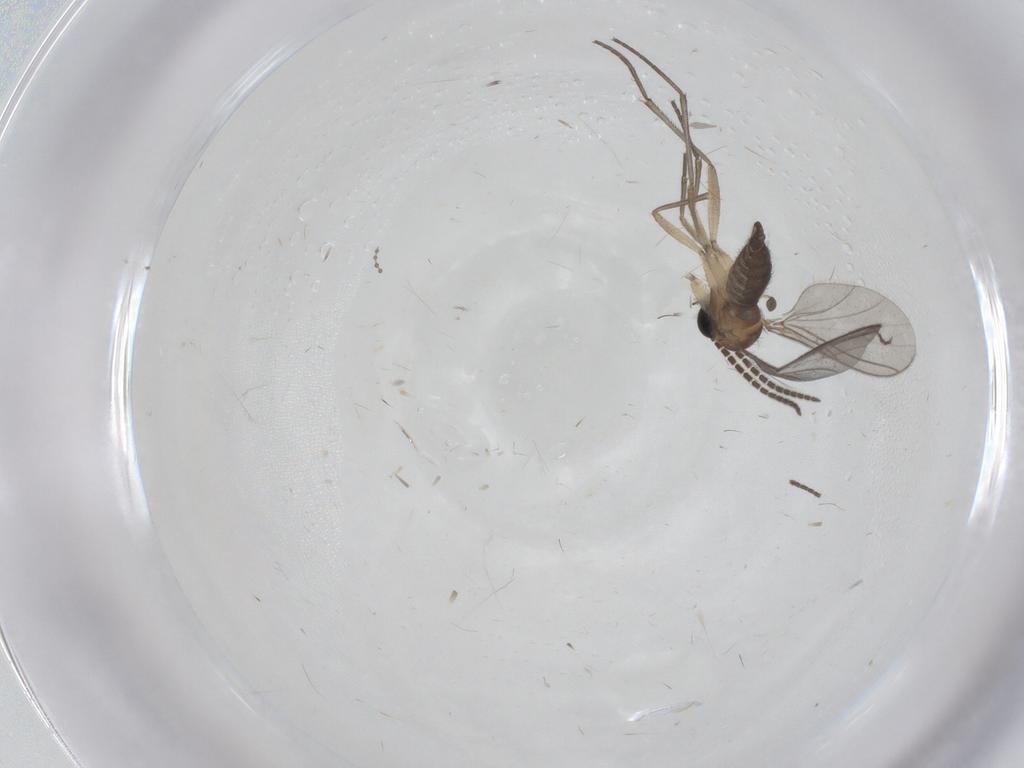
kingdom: Animalia
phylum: Arthropoda
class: Insecta
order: Diptera
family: Sciaridae
